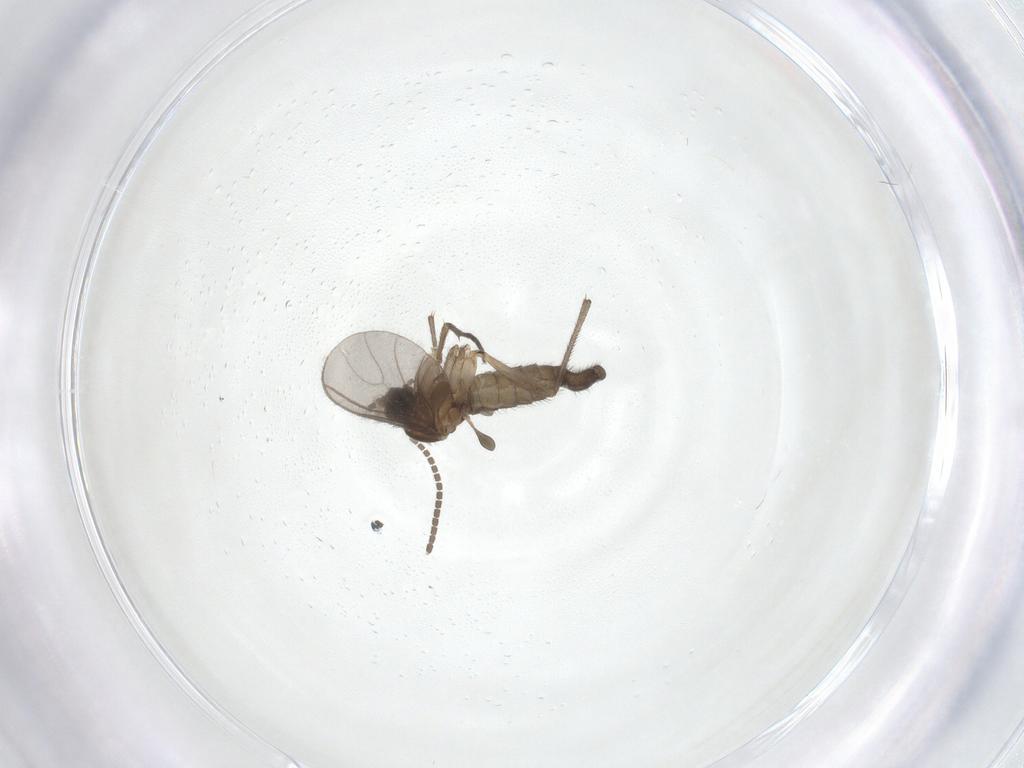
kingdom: Animalia
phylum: Arthropoda
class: Insecta
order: Diptera
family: Sciaridae
